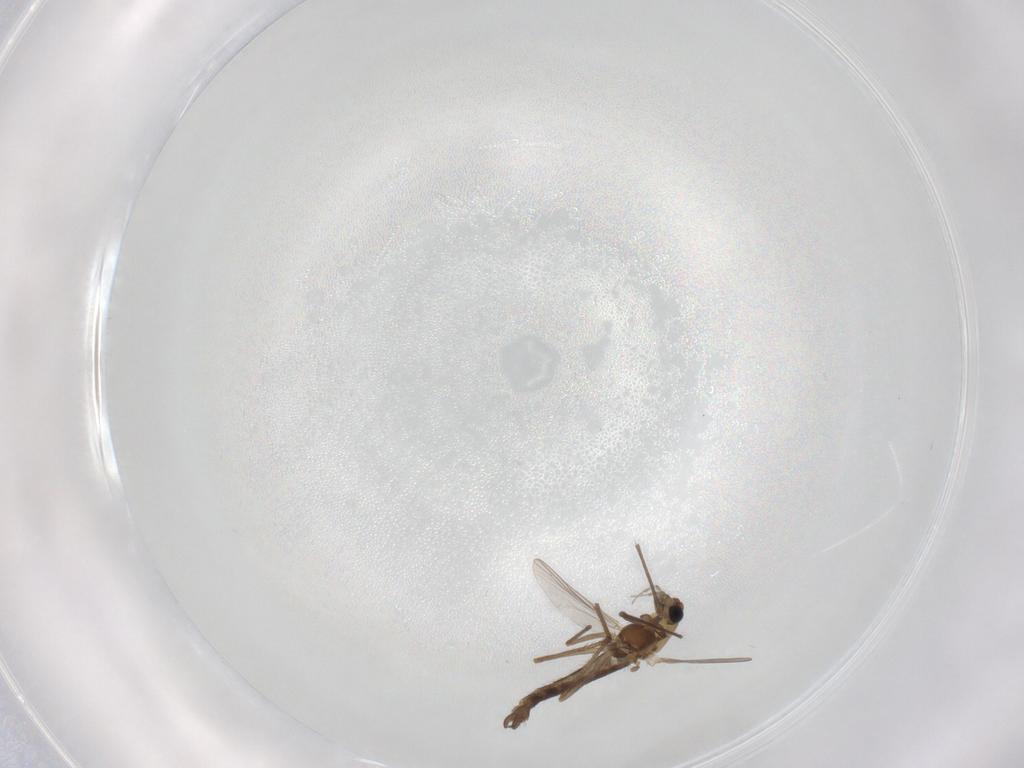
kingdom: Animalia
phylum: Arthropoda
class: Insecta
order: Diptera
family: Chironomidae
